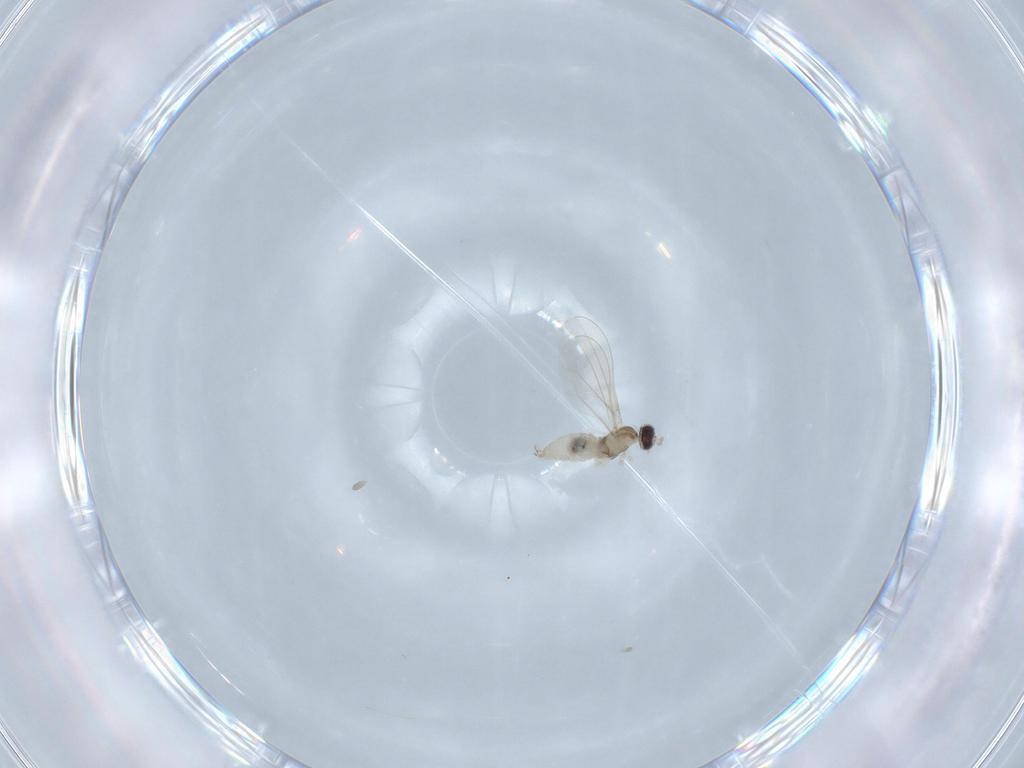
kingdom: Animalia
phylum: Arthropoda
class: Insecta
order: Diptera
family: Cecidomyiidae
